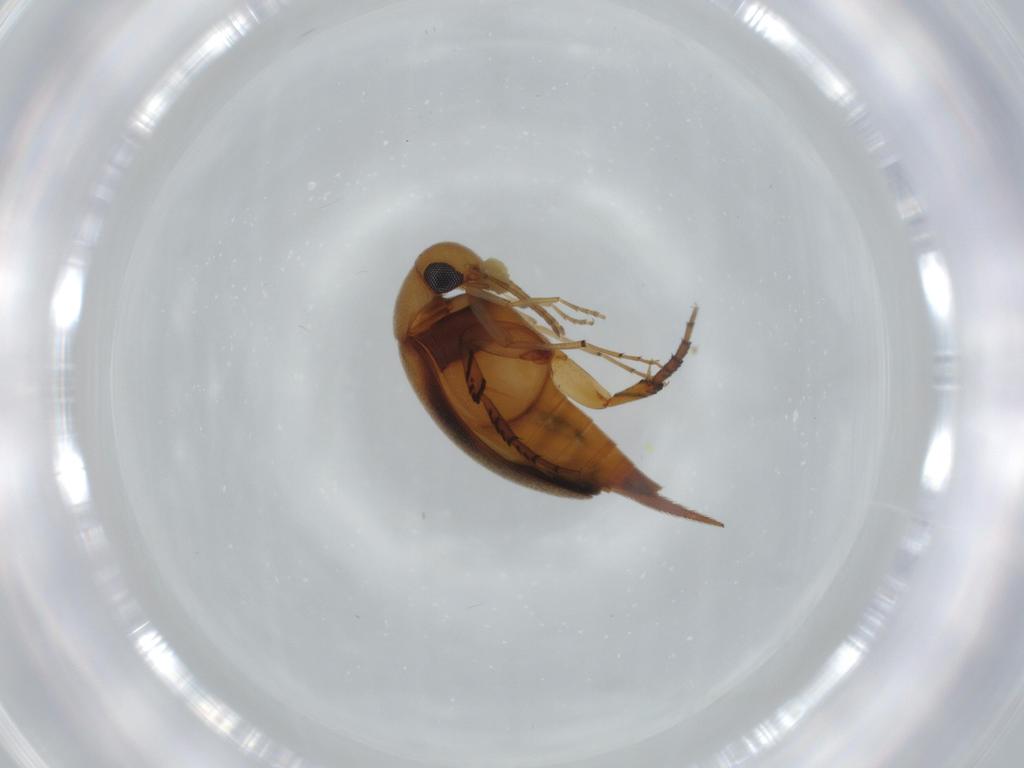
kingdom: Animalia
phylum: Arthropoda
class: Insecta
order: Coleoptera
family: Mordellidae
